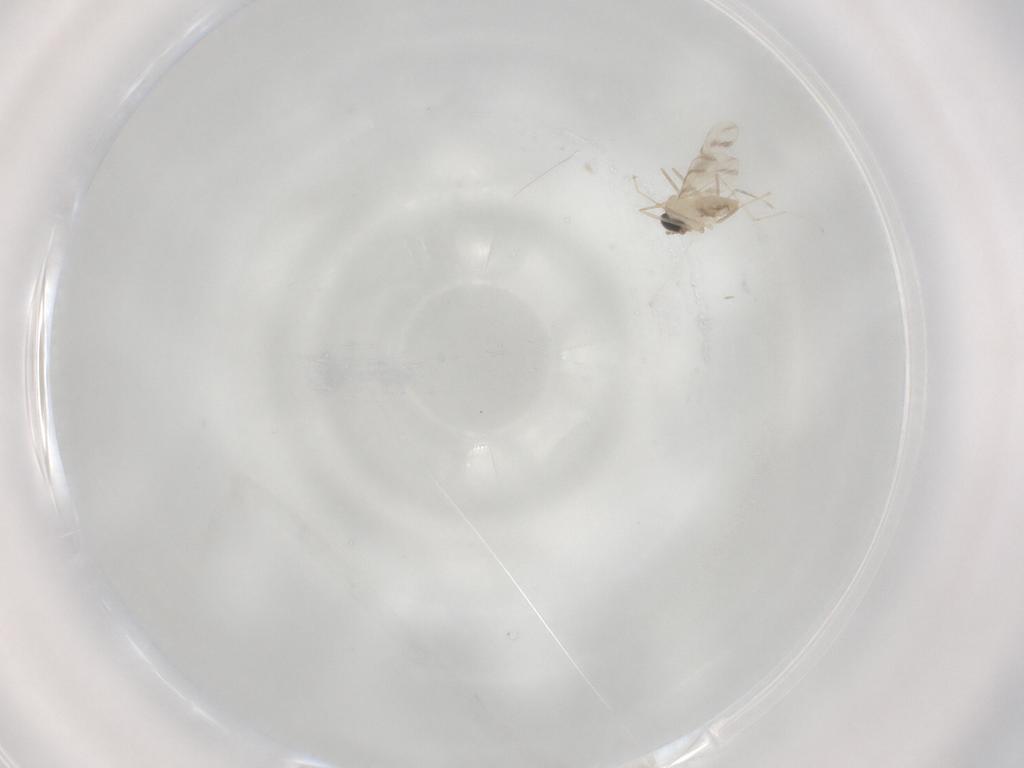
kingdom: Animalia
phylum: Arthropoda
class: Insecta
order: Diptera
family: Cecidomyiidae
